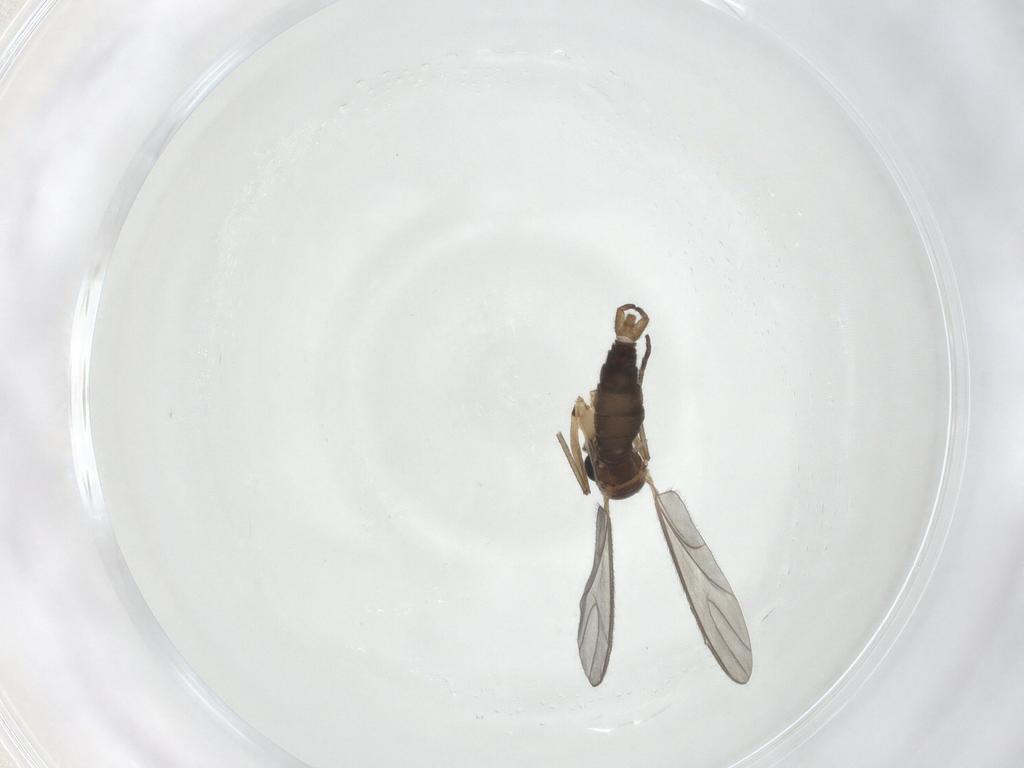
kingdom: Animalia
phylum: Arthropoda
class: Insecta
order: Diptera
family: Sciaridae
